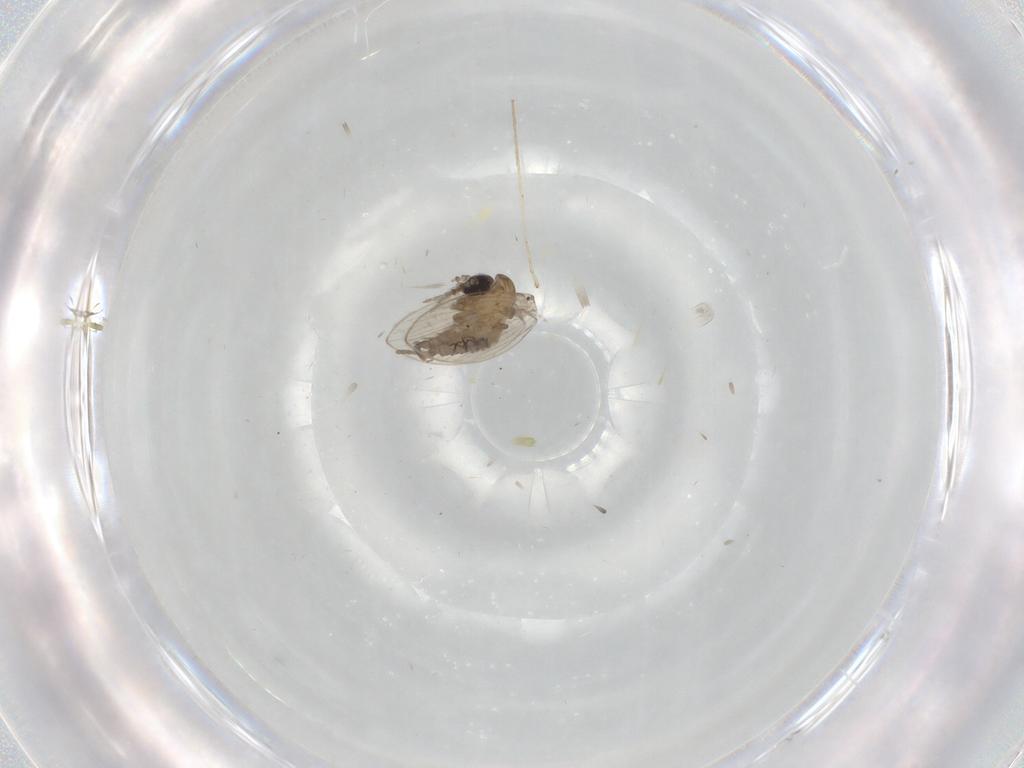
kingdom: Animalia
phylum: Arthropoda
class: Insecta
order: Diptera
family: Psychodidae
